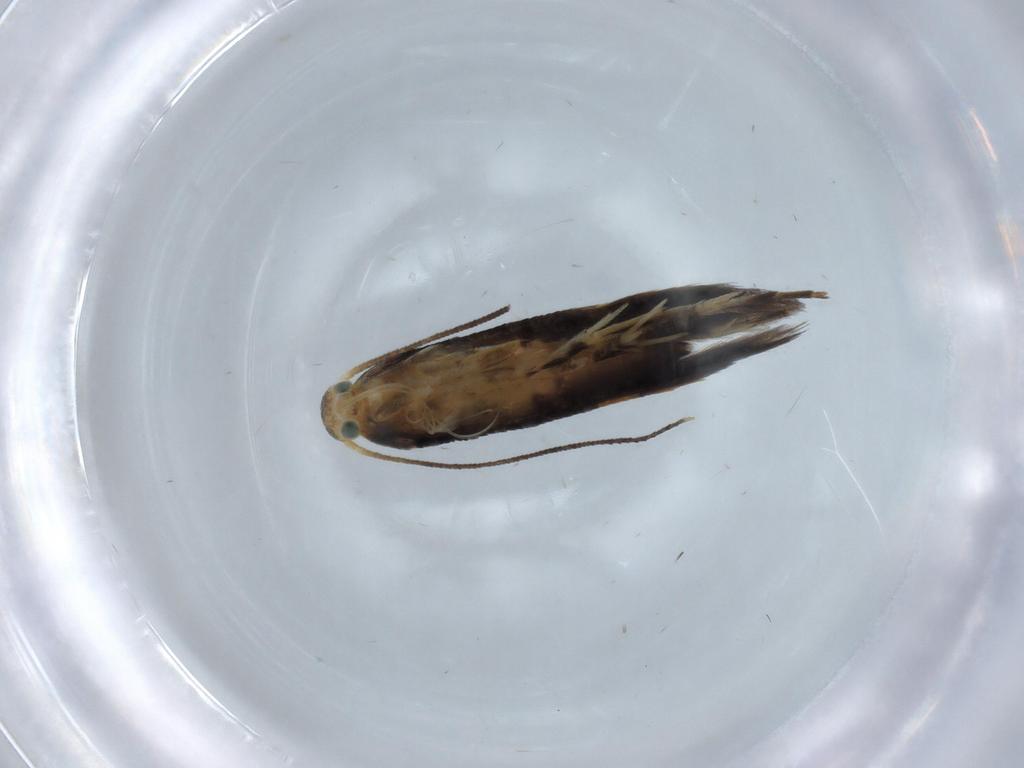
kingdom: Animalia
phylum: Arthropoda
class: Insecta
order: Lepidoptera
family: Heliodinidae
